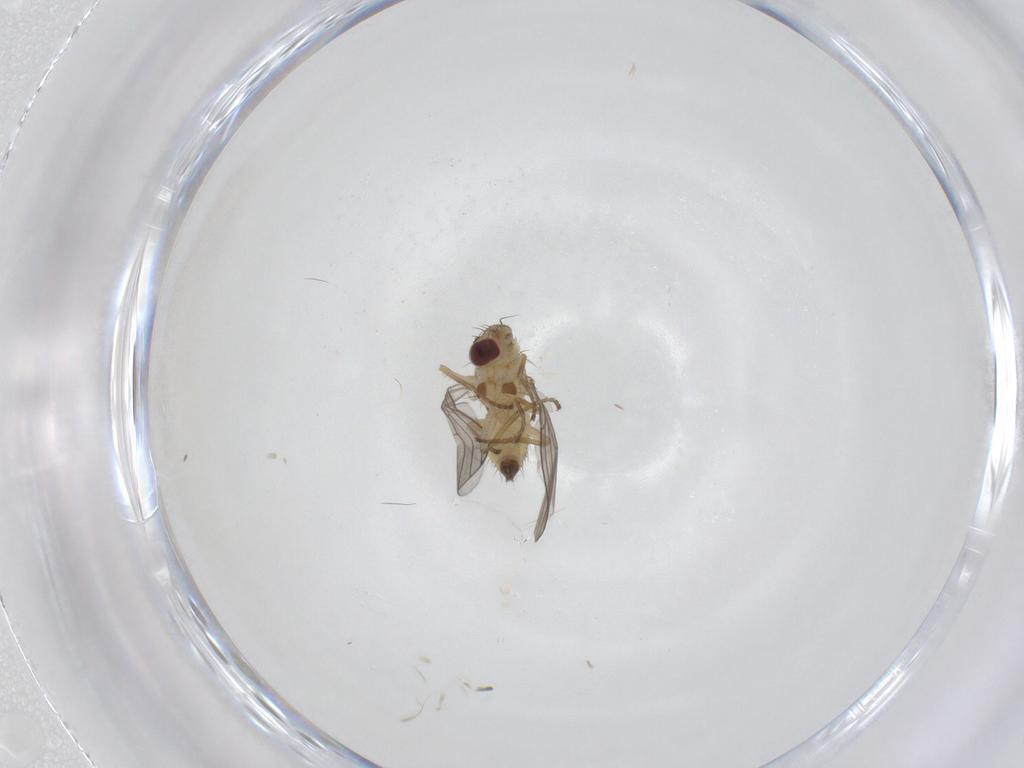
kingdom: Animalia
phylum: Arthropoda
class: Insecta
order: Diptera
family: Agromyzidae
